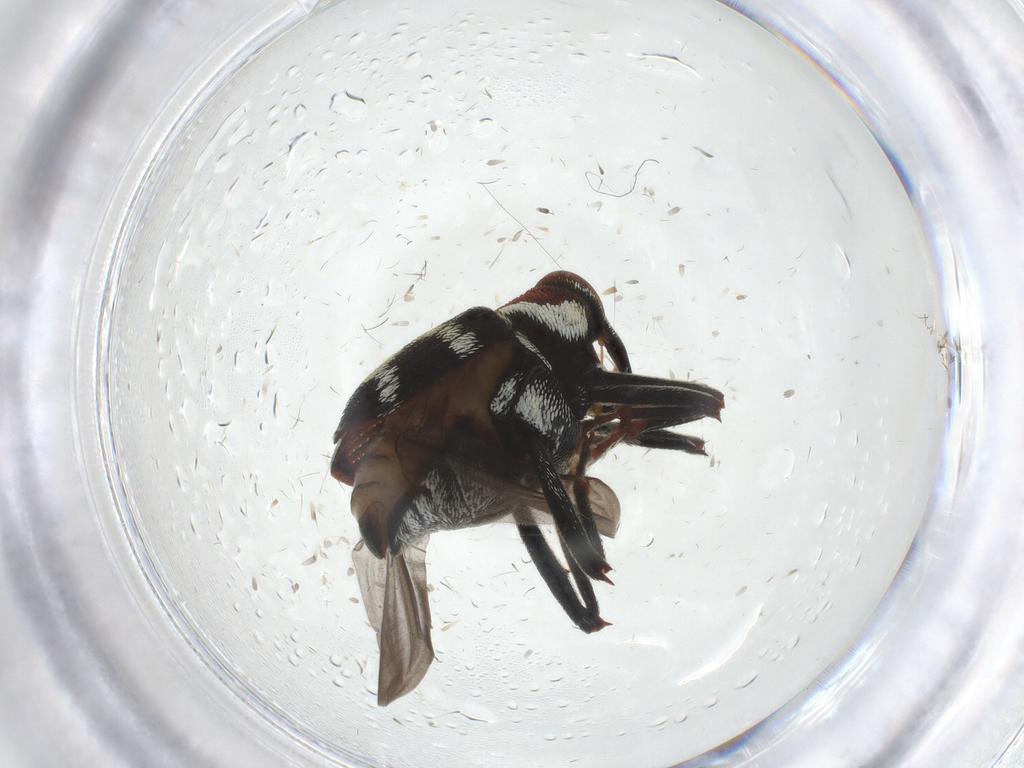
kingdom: Animalia
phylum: Arthropoda
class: Insecta
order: Coleoptera
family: Curculionidae
